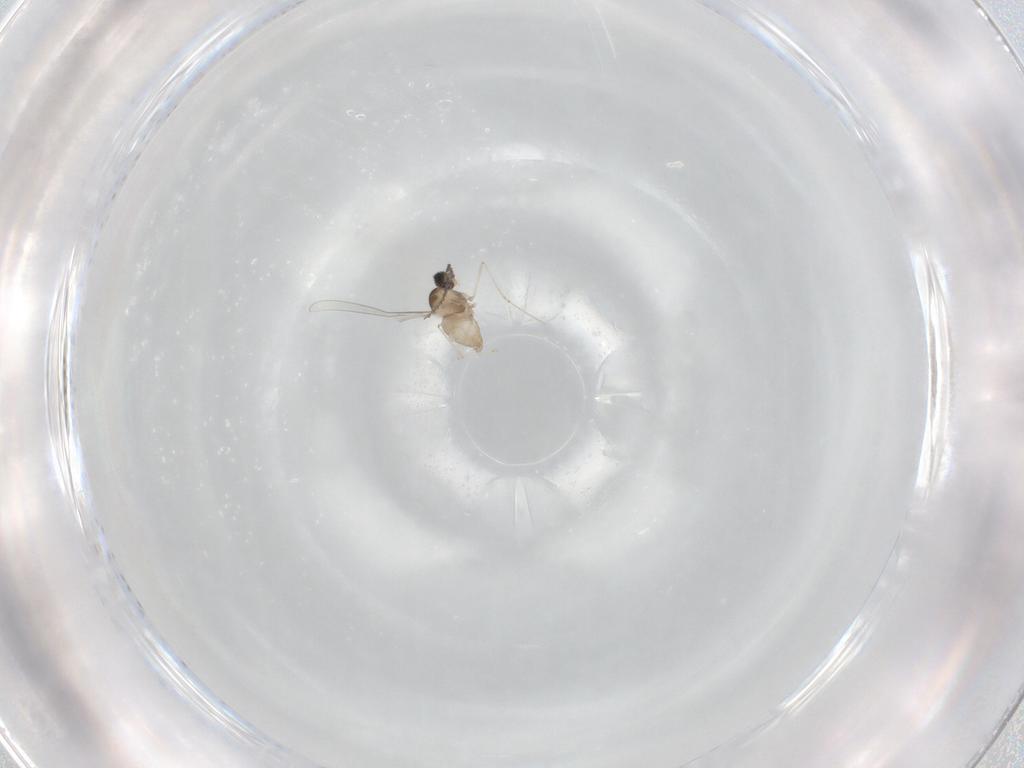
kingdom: Animalia
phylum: Arthropoda
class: Insecta
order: Diptera
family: Cecidomyiidae
